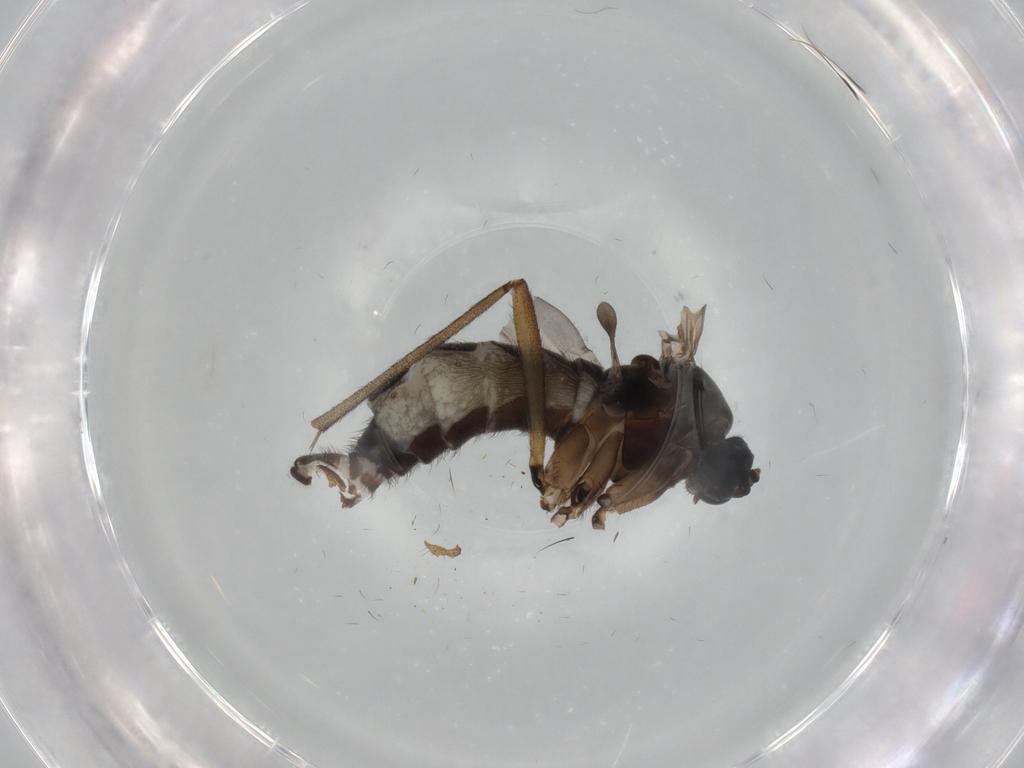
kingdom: Animalia
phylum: Arthropoda
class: Insecta
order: Diptera
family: Sciaridae
